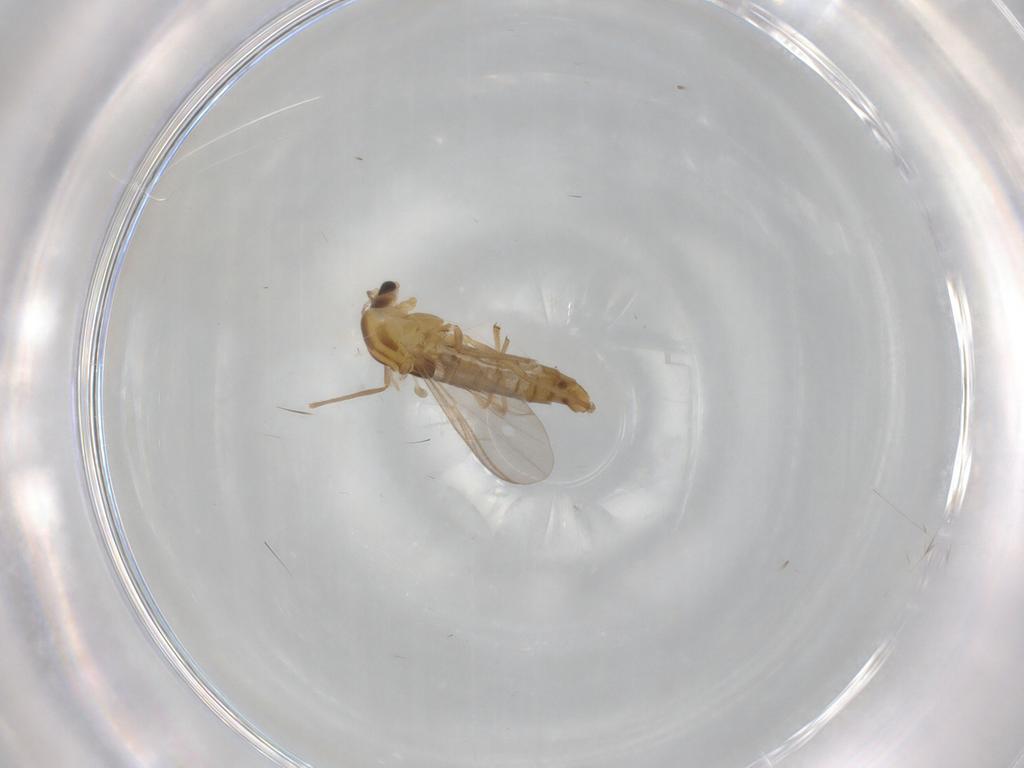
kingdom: Animalia
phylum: Arthropoda
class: Insecta
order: Diptera
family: Chironomidae
